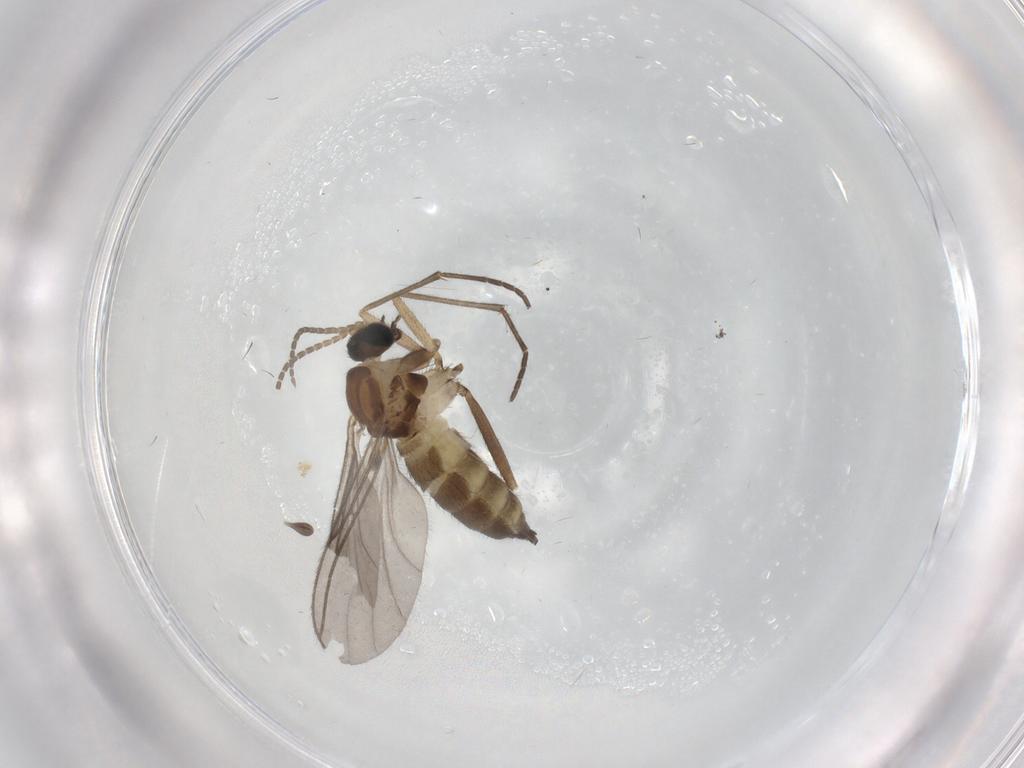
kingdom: Animalia
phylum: Arthropoda
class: Insecta
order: Diptera
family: Sciaridae
